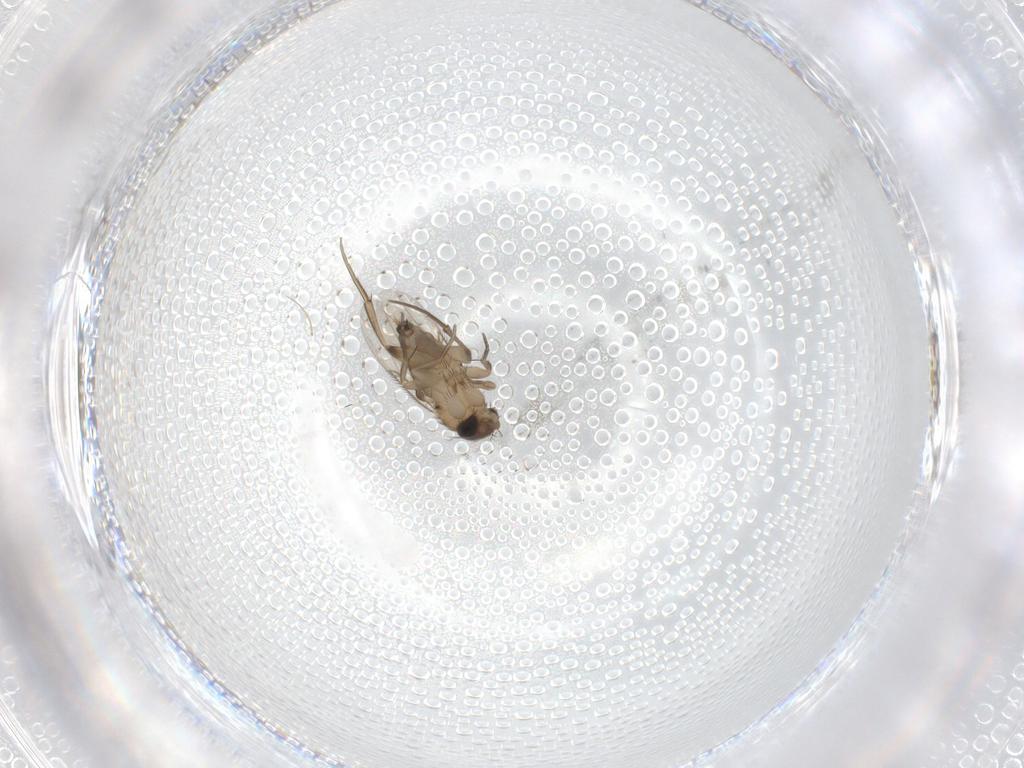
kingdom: Animalia
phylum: Arthropoda
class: Insecta
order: Diptera
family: Phoridae
